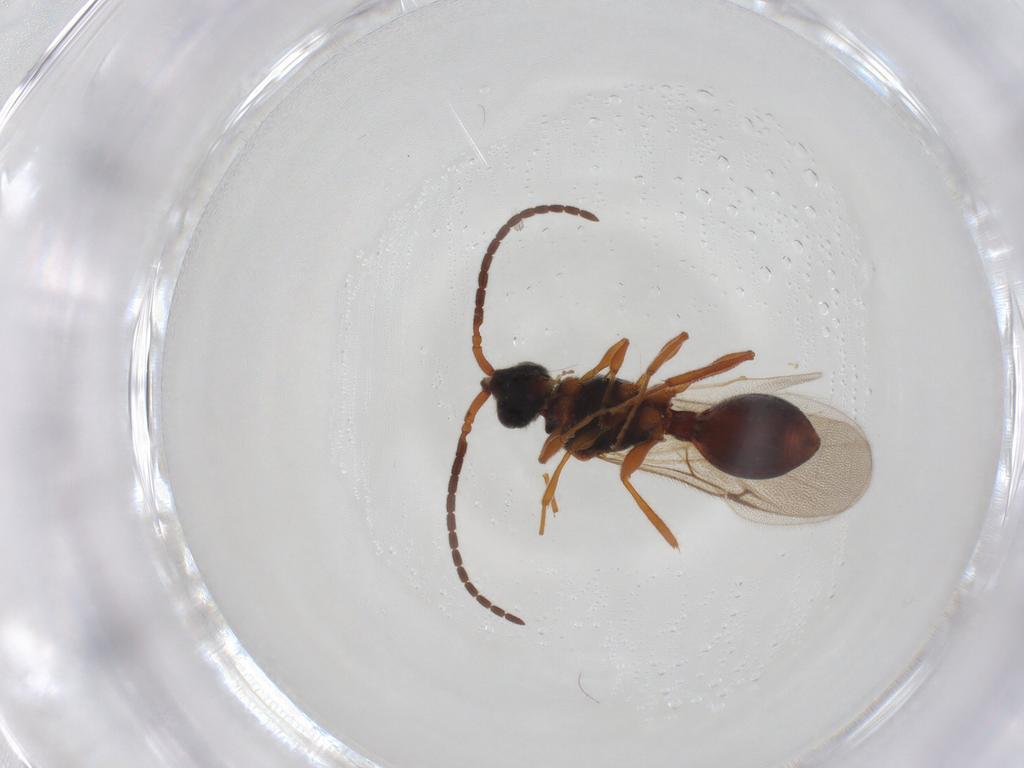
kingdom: Animalia
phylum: Arthropoda
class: Insecta
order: Hymenoptera
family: Diapriidae
